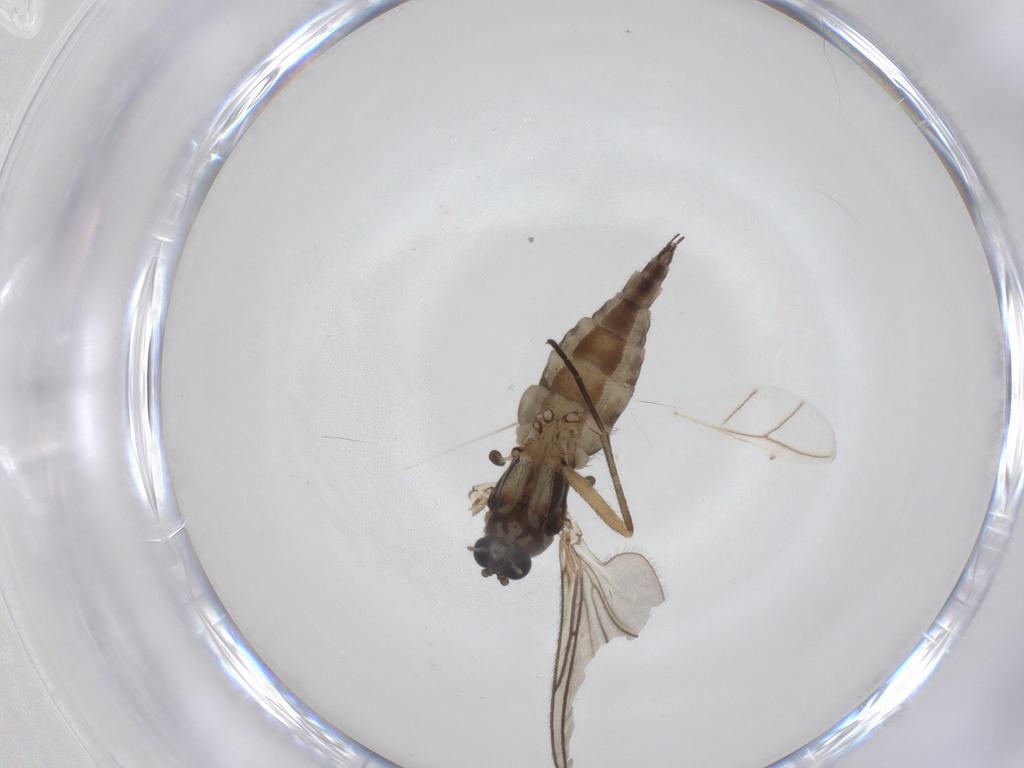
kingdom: Animalia
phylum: Arthropoda
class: Insecta
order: Diptera
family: Sciaridae
